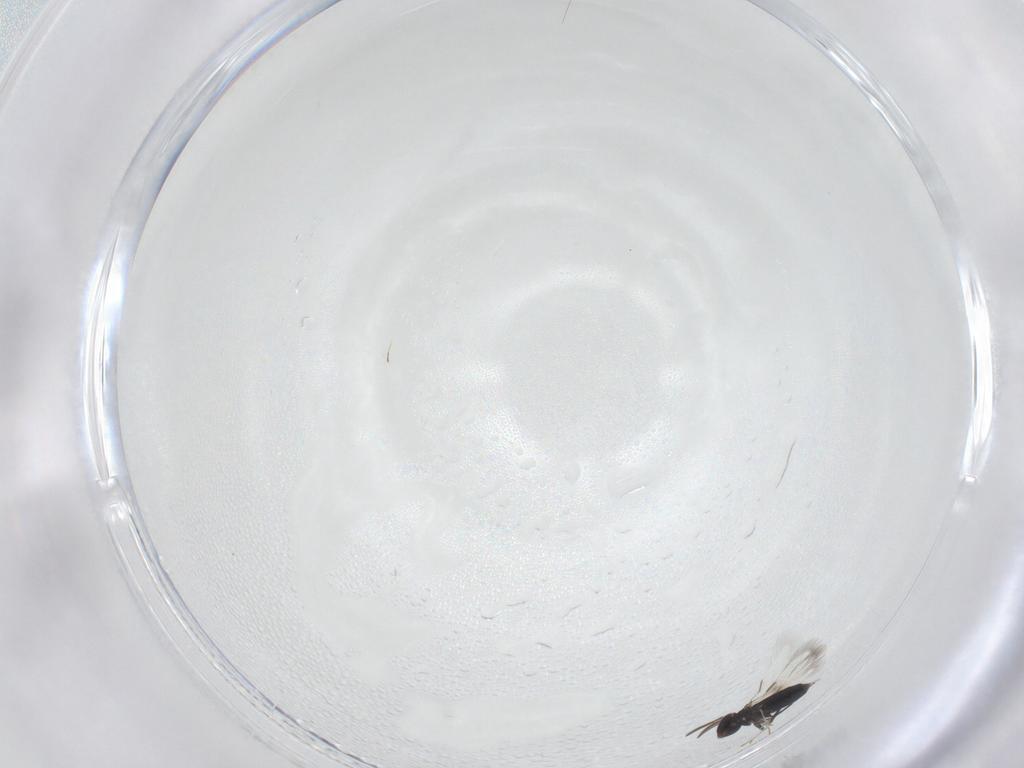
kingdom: Animalia
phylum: Arthropoda
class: Insecta
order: Hymenoptera
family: Signiphoridae
